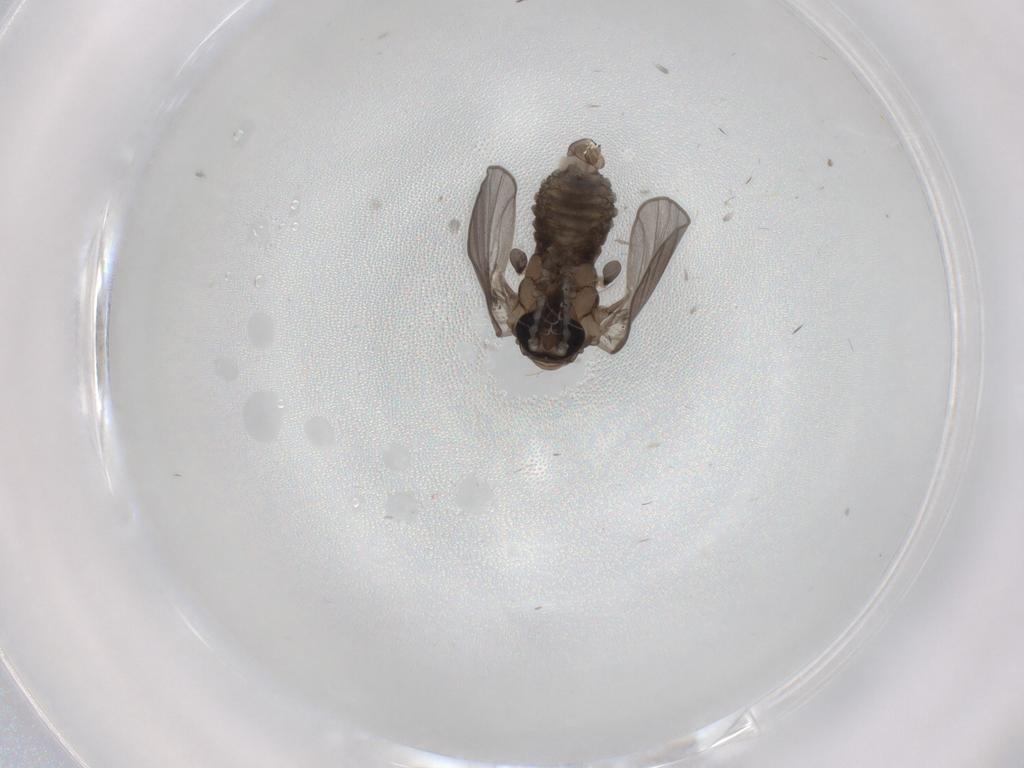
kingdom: Animalia
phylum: Arthropoda
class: Insecta
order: Diptera
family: Psychodidae
